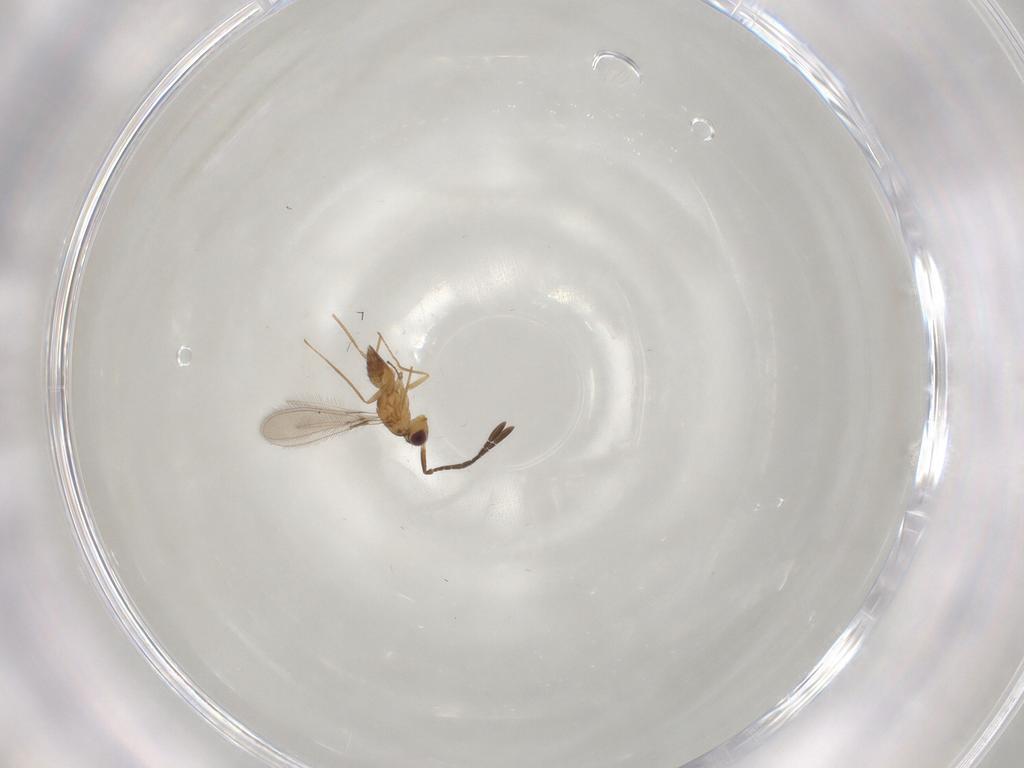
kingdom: Animalia
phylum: Arthropoda
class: Insecta
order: Hymenoptera
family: Mymaridae
